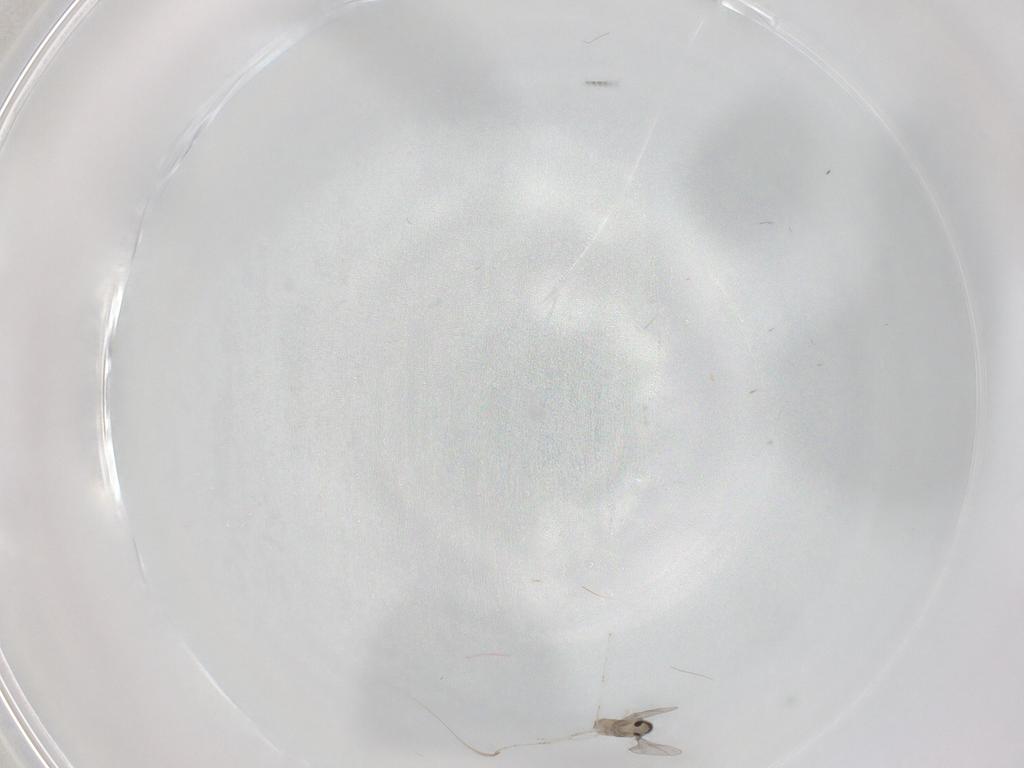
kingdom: Animalia
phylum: Arthropoda
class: Insecta
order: Diptera
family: Cecidomyiidae
